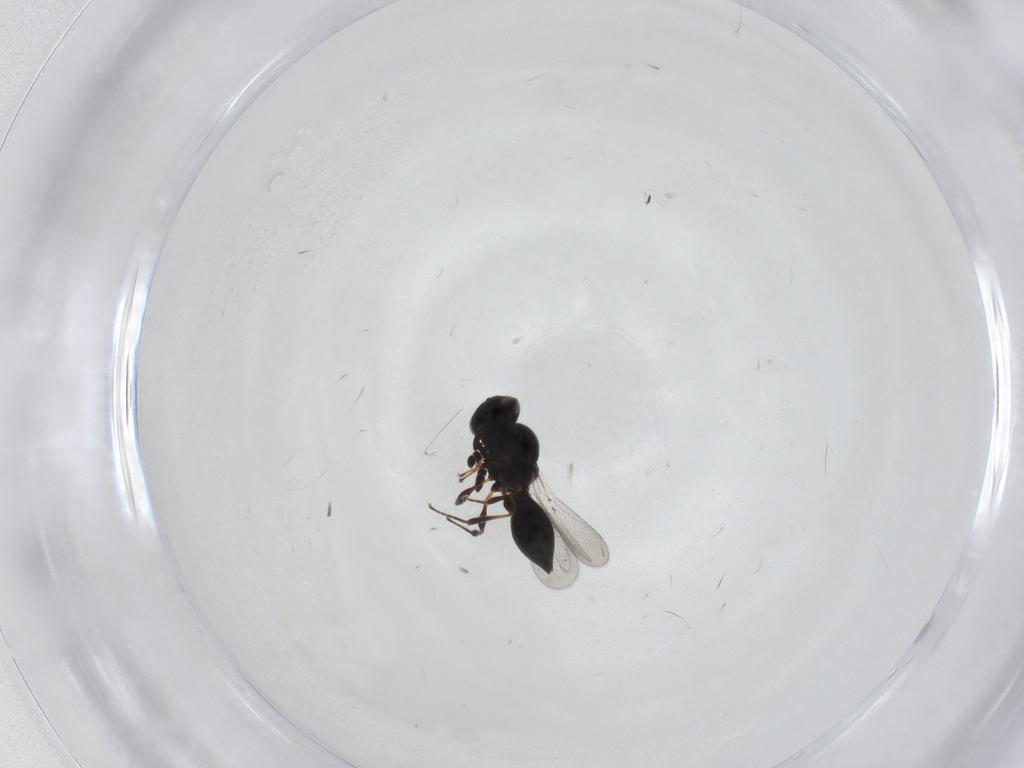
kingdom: Animalia
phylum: Arthropoda
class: Insecta
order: Hymenoptera
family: Platygastridae
